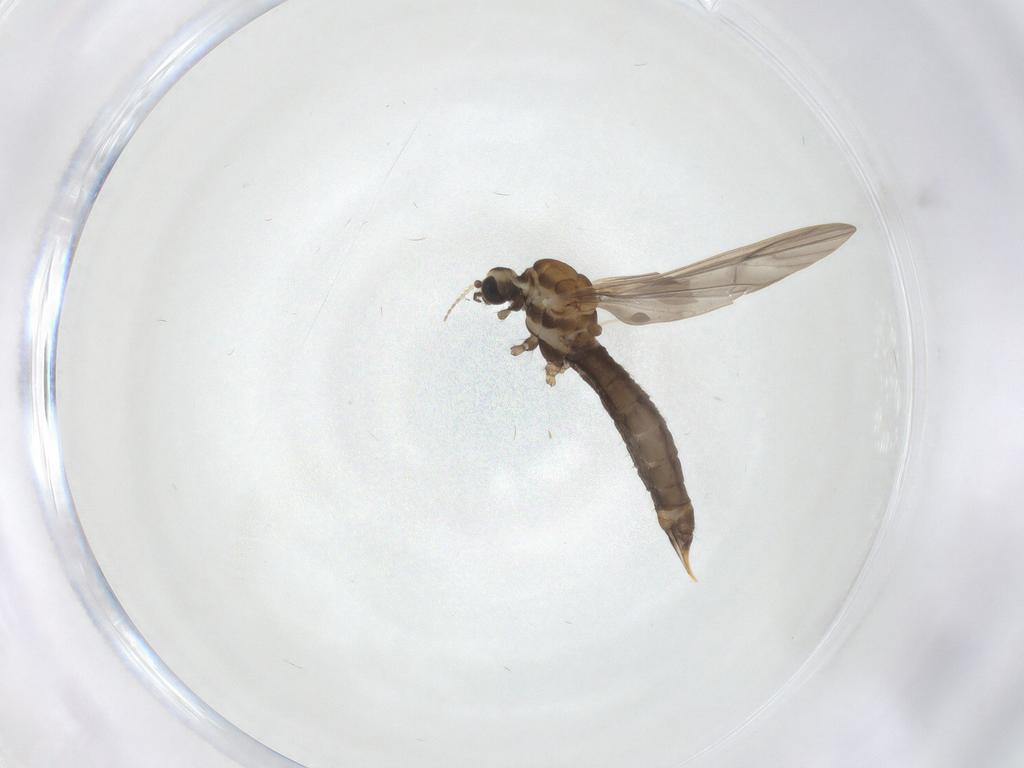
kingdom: Animalia
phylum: Arthropoda
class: Insecta
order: Diptera
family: Limoniidae
